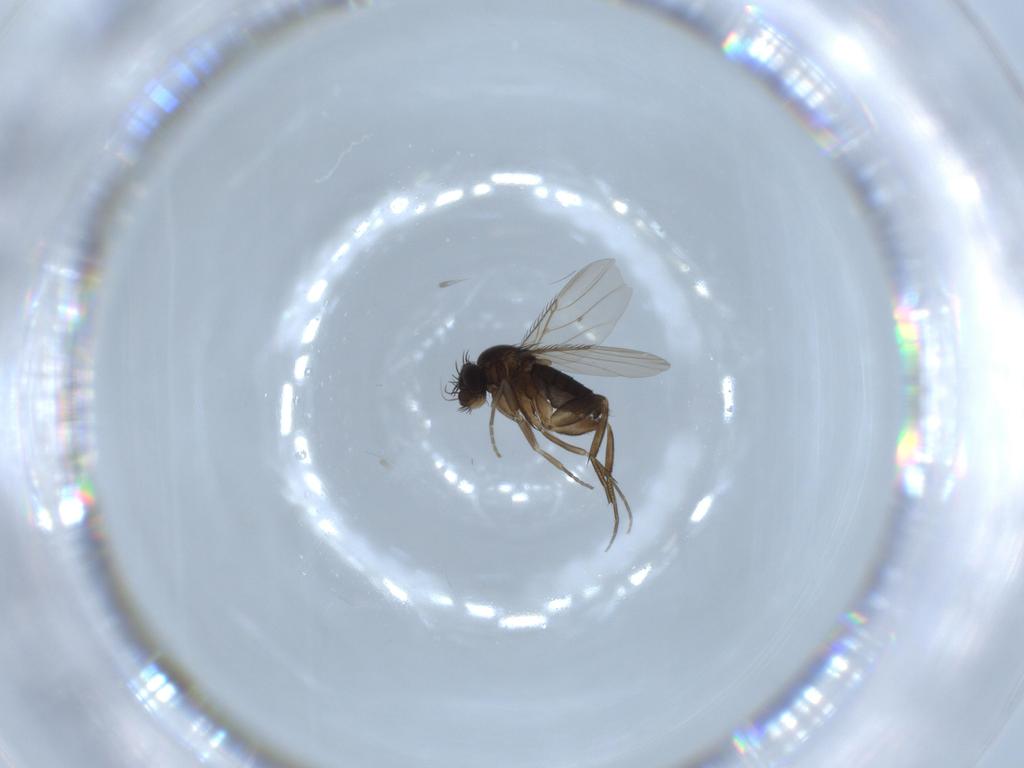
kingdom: Animalia
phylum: Arthropoda
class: Insecta
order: Diptera
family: Phoridae
